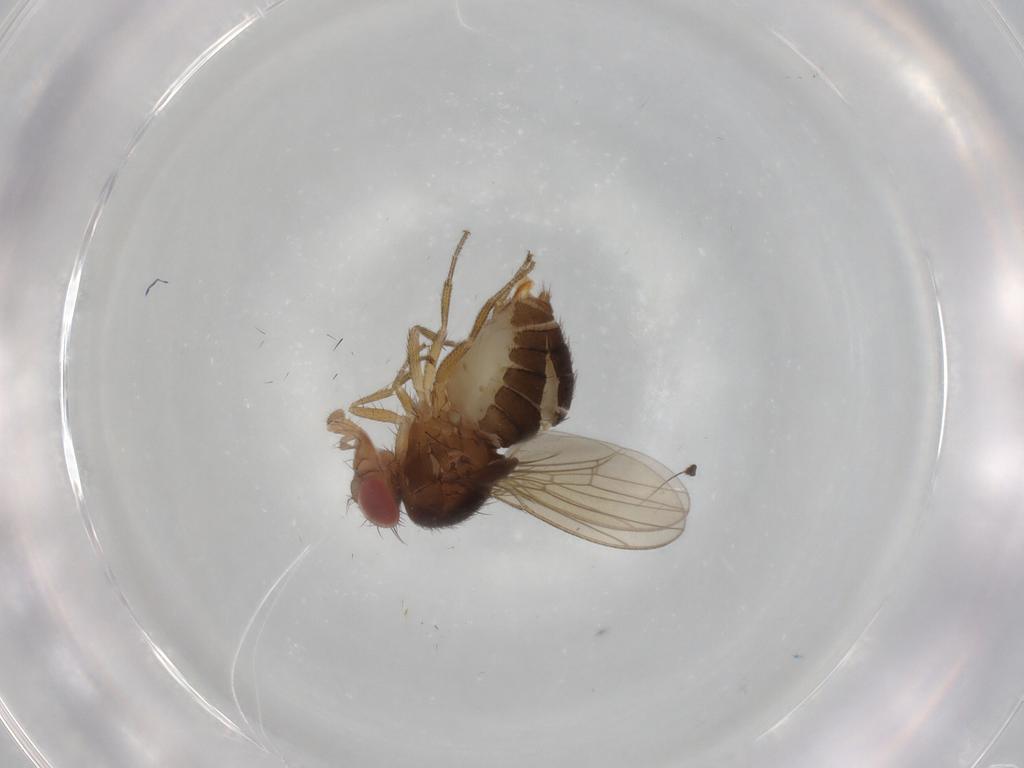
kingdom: Animalia
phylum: Arthropoda
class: Insecta
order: Diptera
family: Drosophilidae
